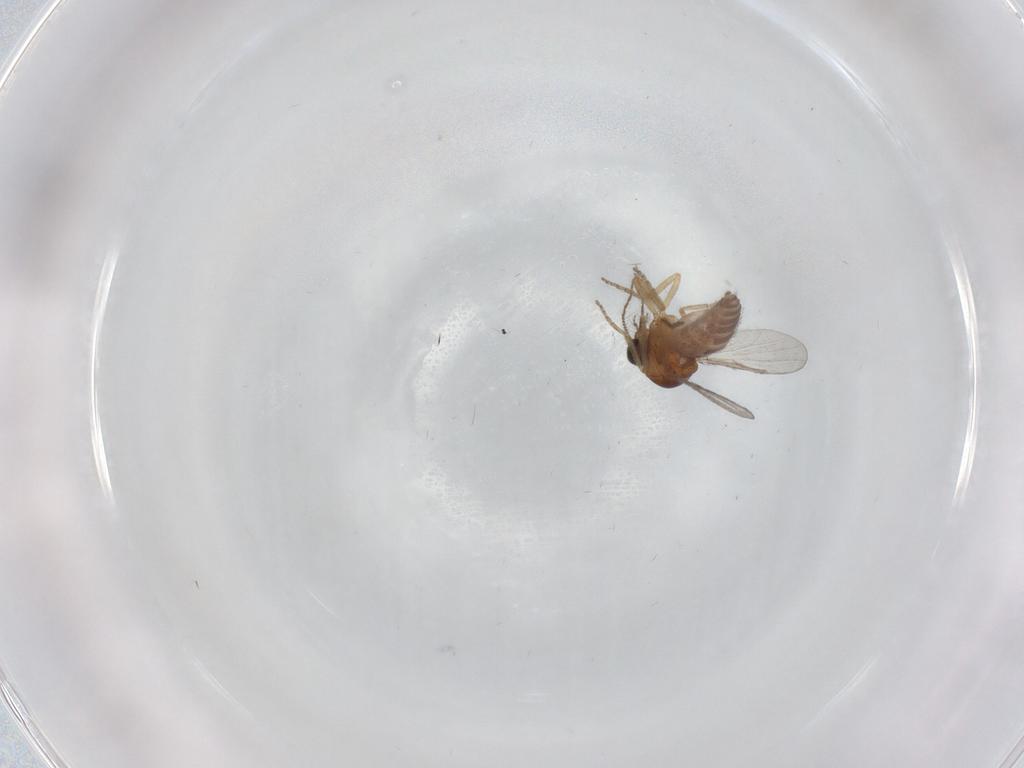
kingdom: Animalia
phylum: Arthropoda
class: Insecta
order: Diptera
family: Ceratopogonidae
